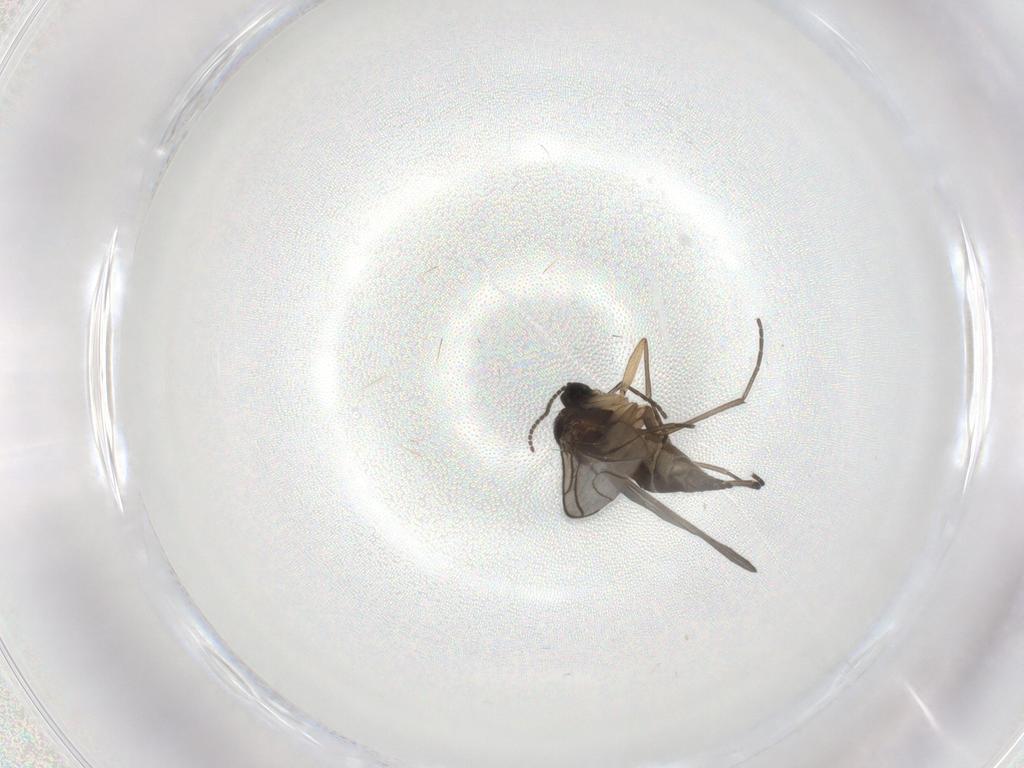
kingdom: Animalia
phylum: Arthropoda
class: Insecta
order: Diptera
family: Sciaridae
